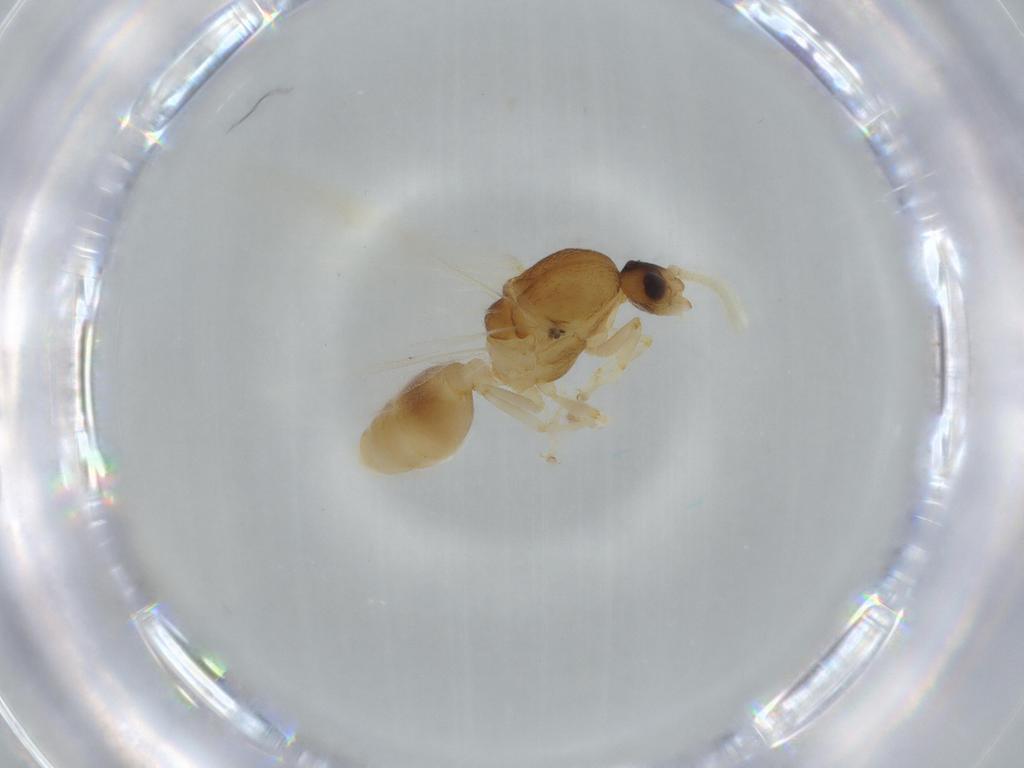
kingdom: Animalia
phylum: Arthropoda
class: Insecta
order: Hymenoptera
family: Formicidae
